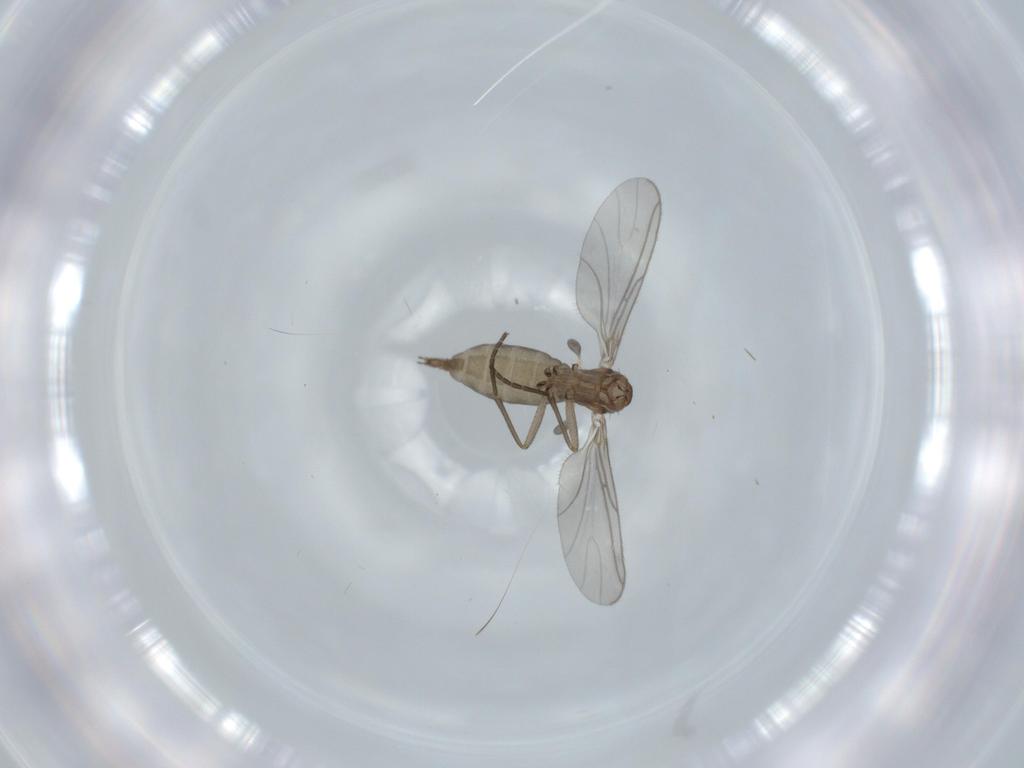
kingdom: Animalia
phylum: Arthropoda
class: Insecta
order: Diptera
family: Sciaridae
